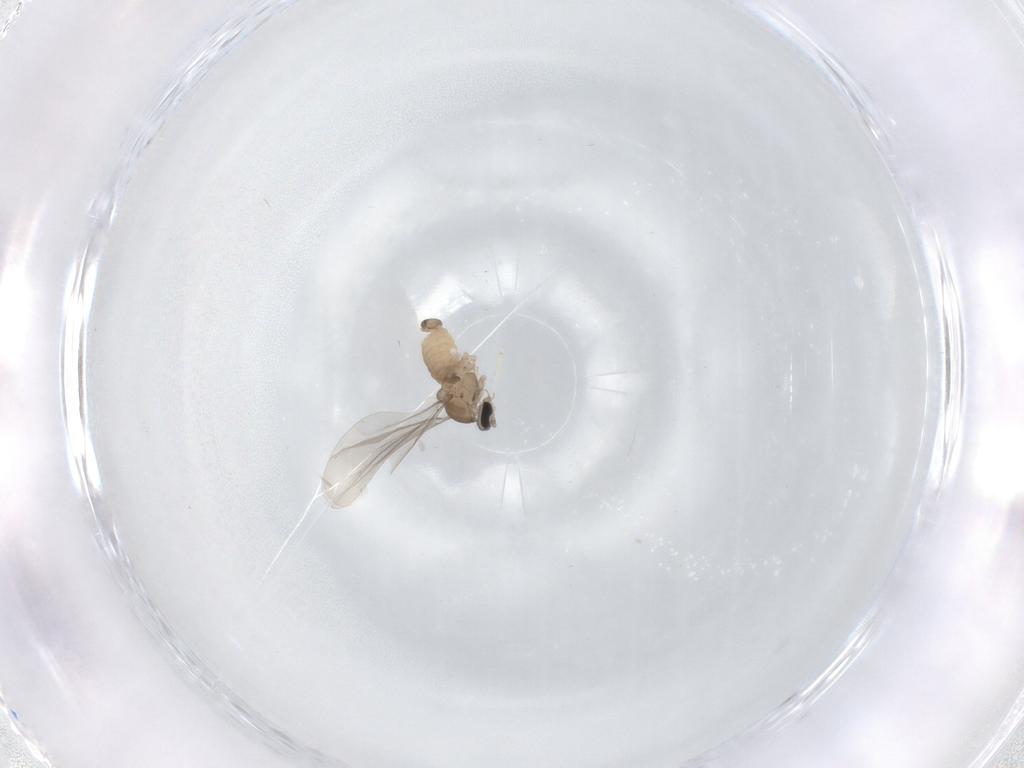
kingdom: Animalia
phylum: Arthropoda
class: Insecta
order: Diptera
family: Cecidomyiidae
